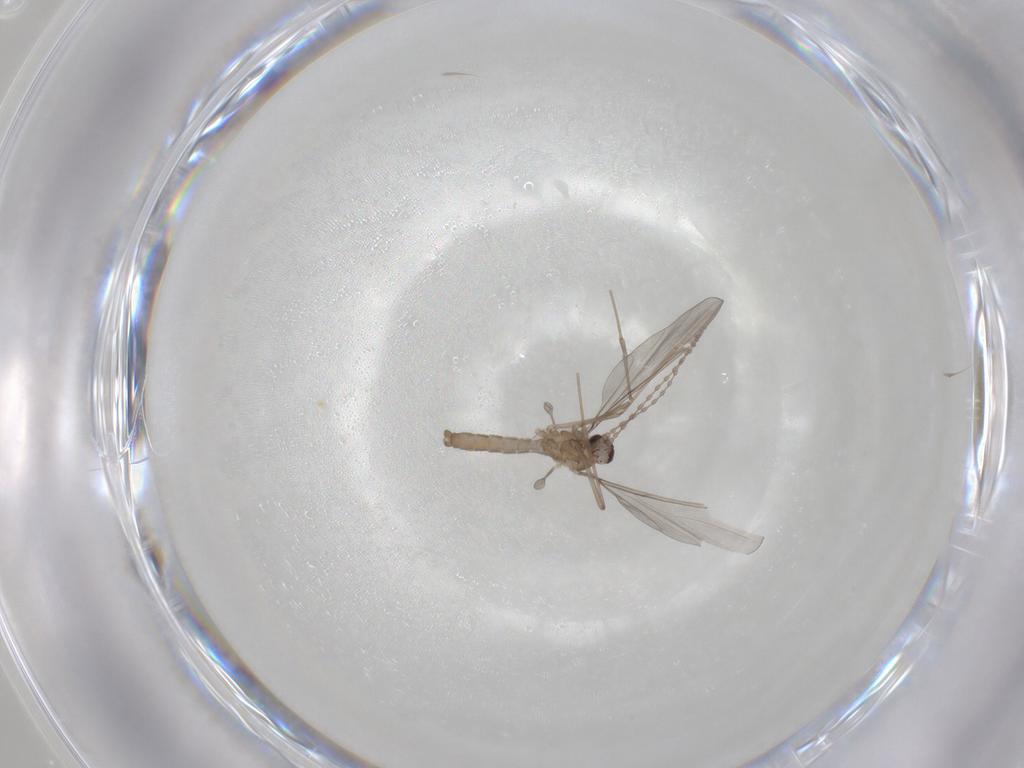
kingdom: Animalia
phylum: Arthropoda
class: Insecta
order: Diptera
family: Cecidomyiidae
